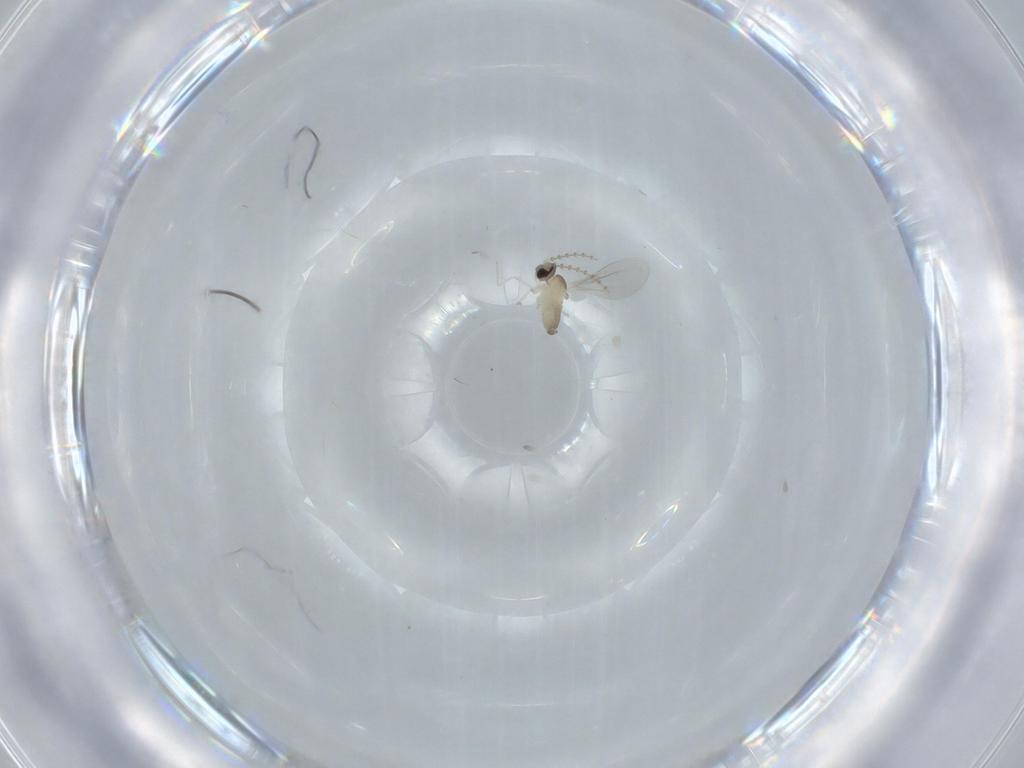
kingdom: Animalia
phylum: Arthropoda
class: Insecta
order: Diptera
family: Cecidomyiidae
